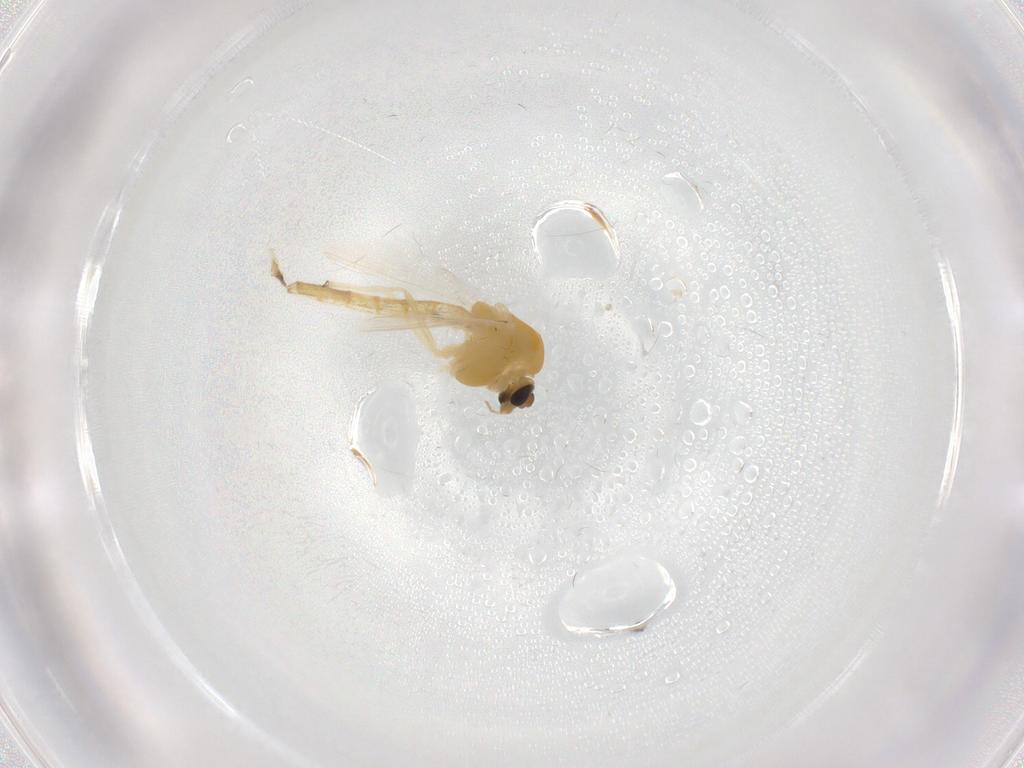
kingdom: Animalia
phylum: Arthropoda
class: Insecta
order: Diptera
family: Chironomidae
